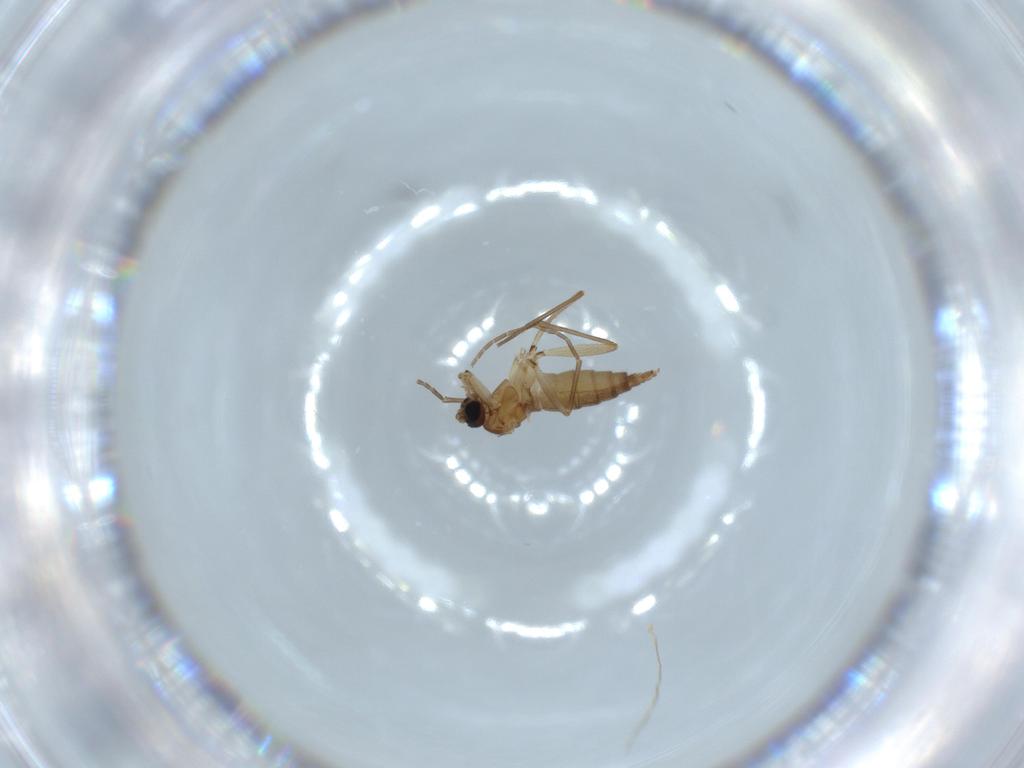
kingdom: Animalia
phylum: Arthropoda
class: Insecta
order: Diptera
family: Sciaridae
